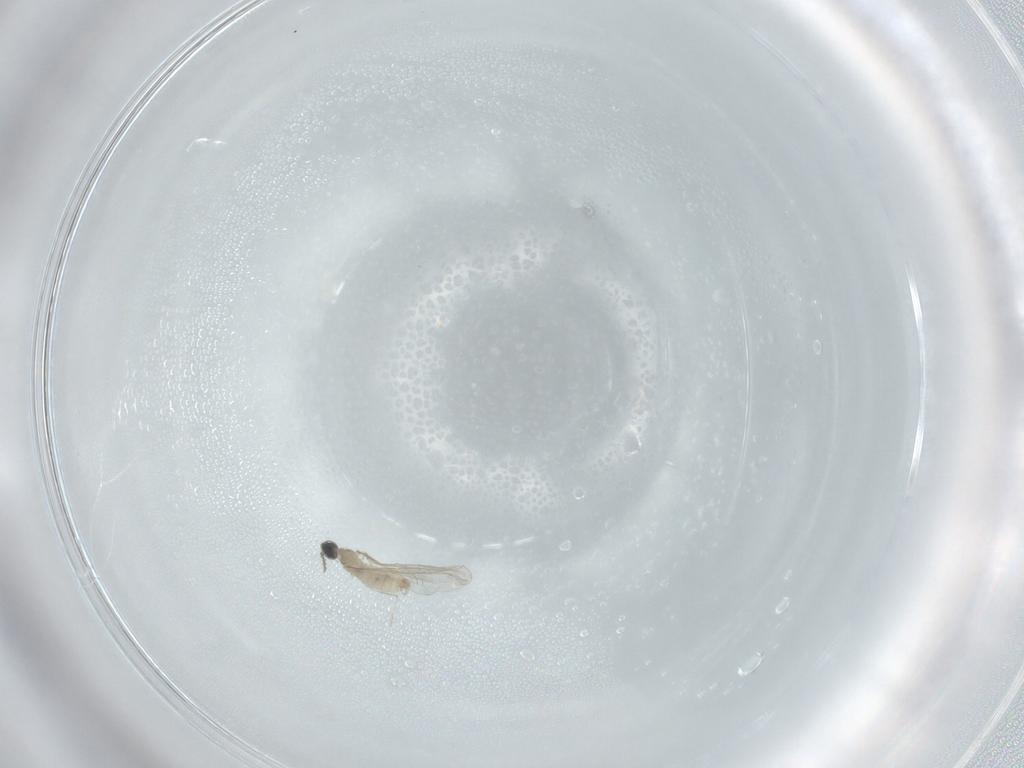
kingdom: Animalia
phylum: Arthropoda
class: Insecta
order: Diptera
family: Cecidomyiidae
